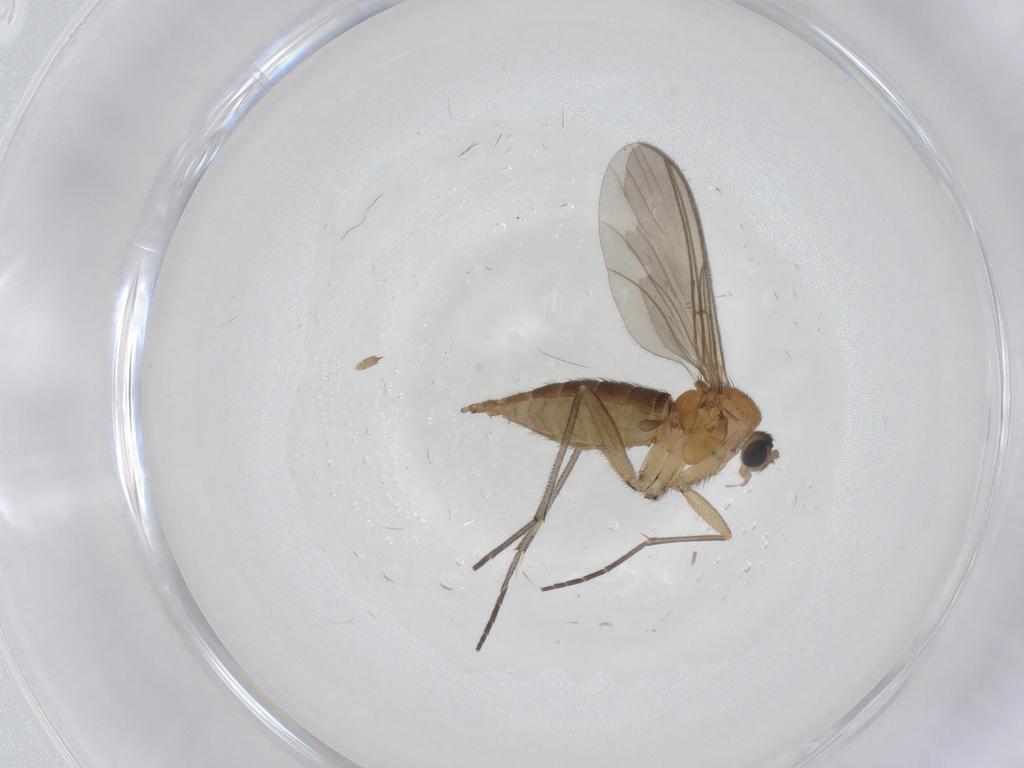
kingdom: Animalia
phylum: Arthropoda
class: Insecta
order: Diptera
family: Sciaridae
